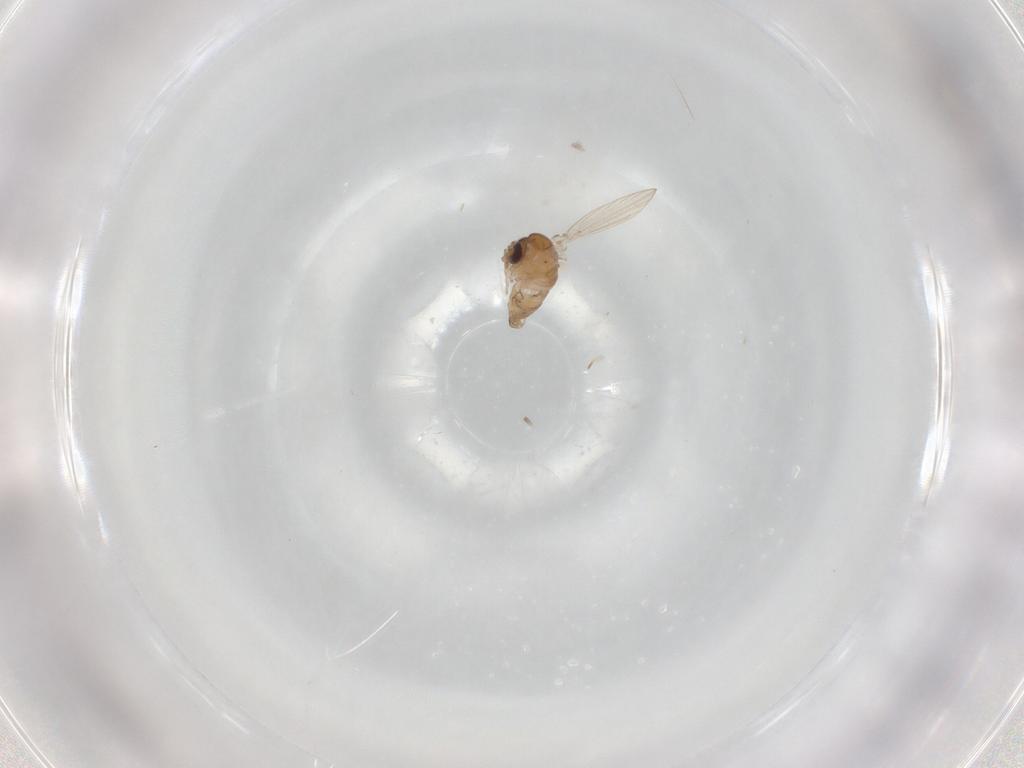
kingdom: Animalia
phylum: Arthropoda
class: Insecta
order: Diptera
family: Psychodidae
